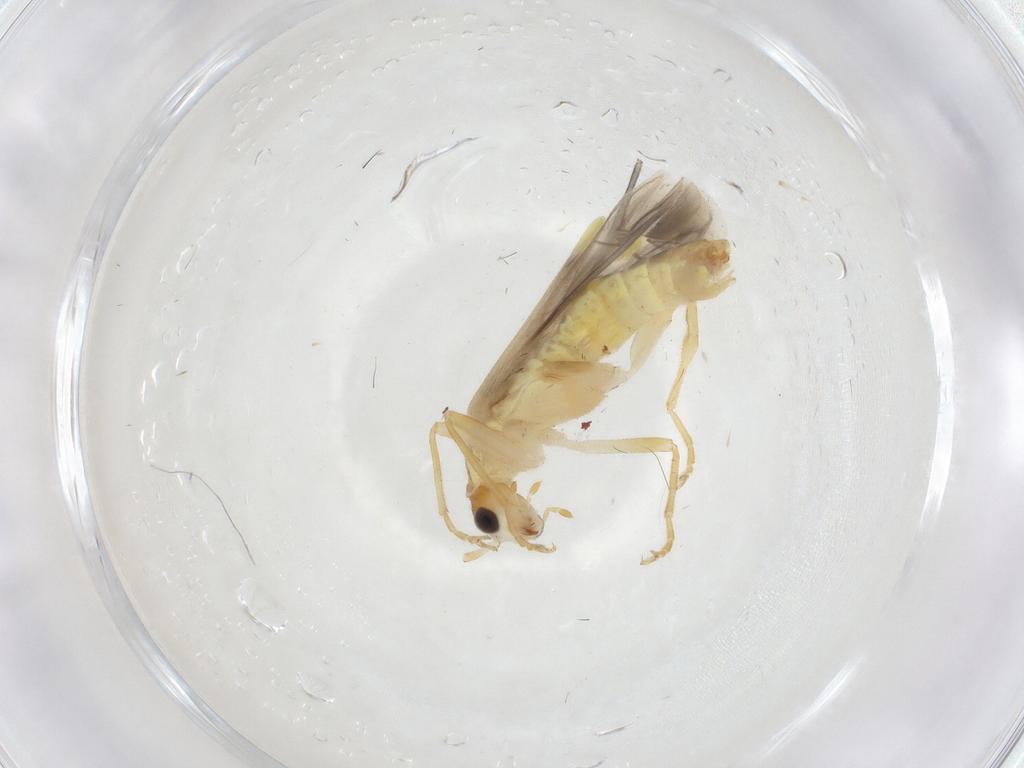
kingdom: Animalia
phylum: Arthropoda
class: Insecta
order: Coleoptera
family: Cantharidae
